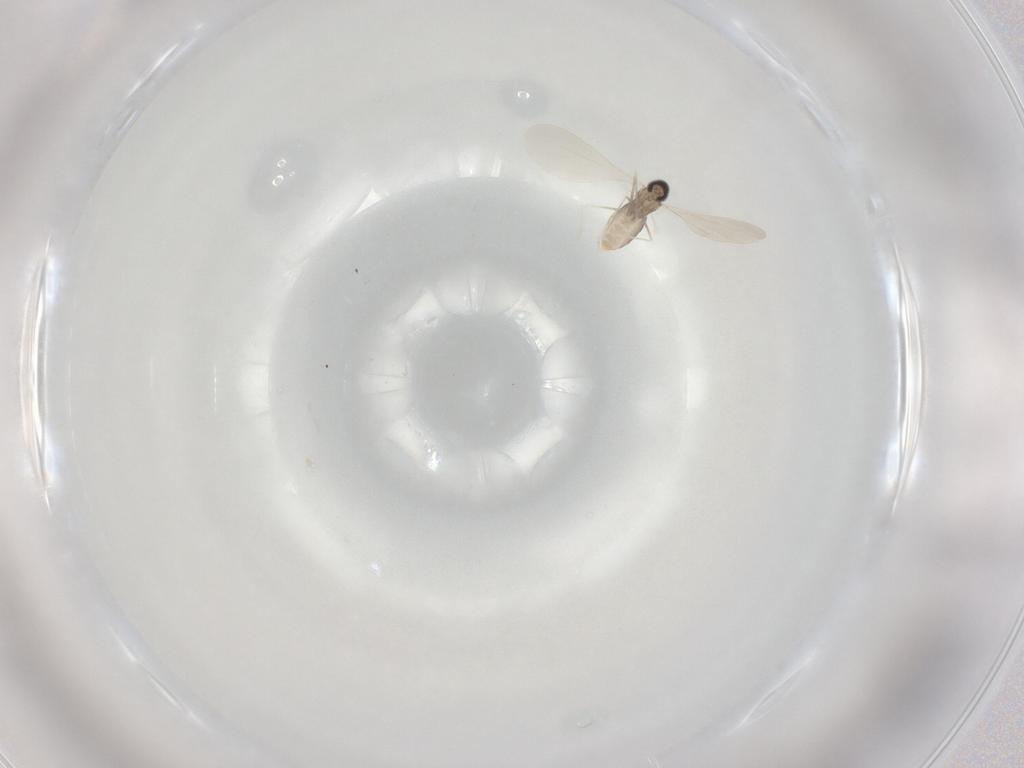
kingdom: Animalia
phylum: Arthropoda
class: Insecta
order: Diptera
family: Cecidomyiidae
